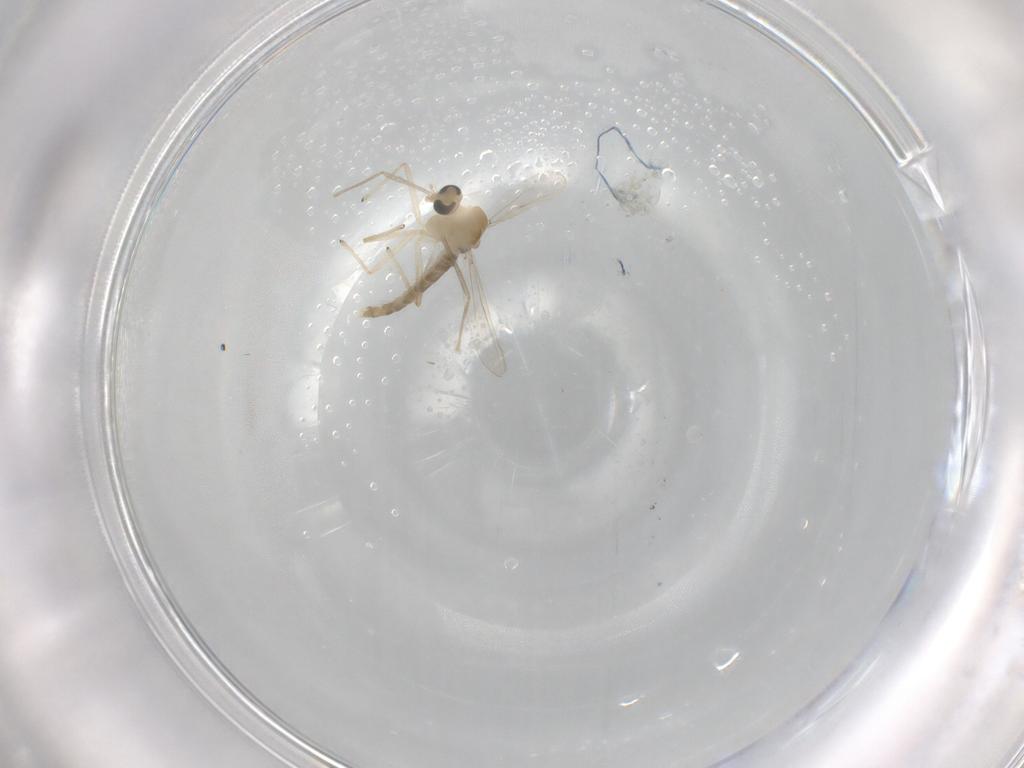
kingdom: Animalia
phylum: Arthropoda
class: Insecta
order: Diptera
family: Chironomidae
